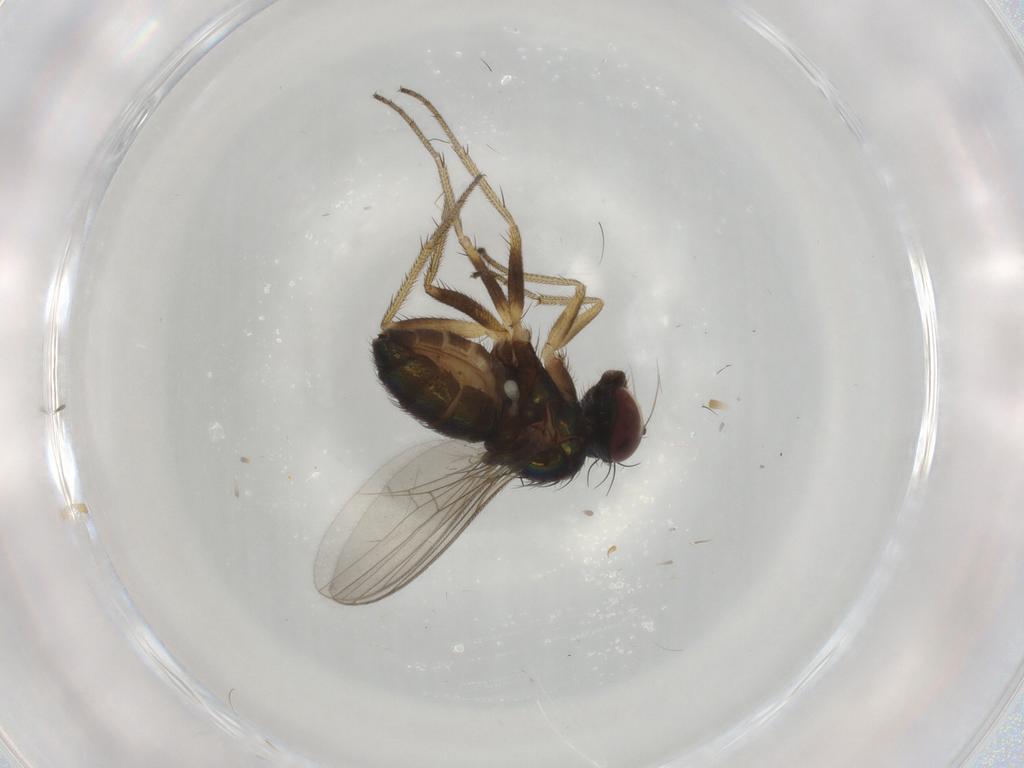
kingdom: Animalia
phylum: Arthropoda
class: Insecta
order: Diptera
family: Dolichopodidae
